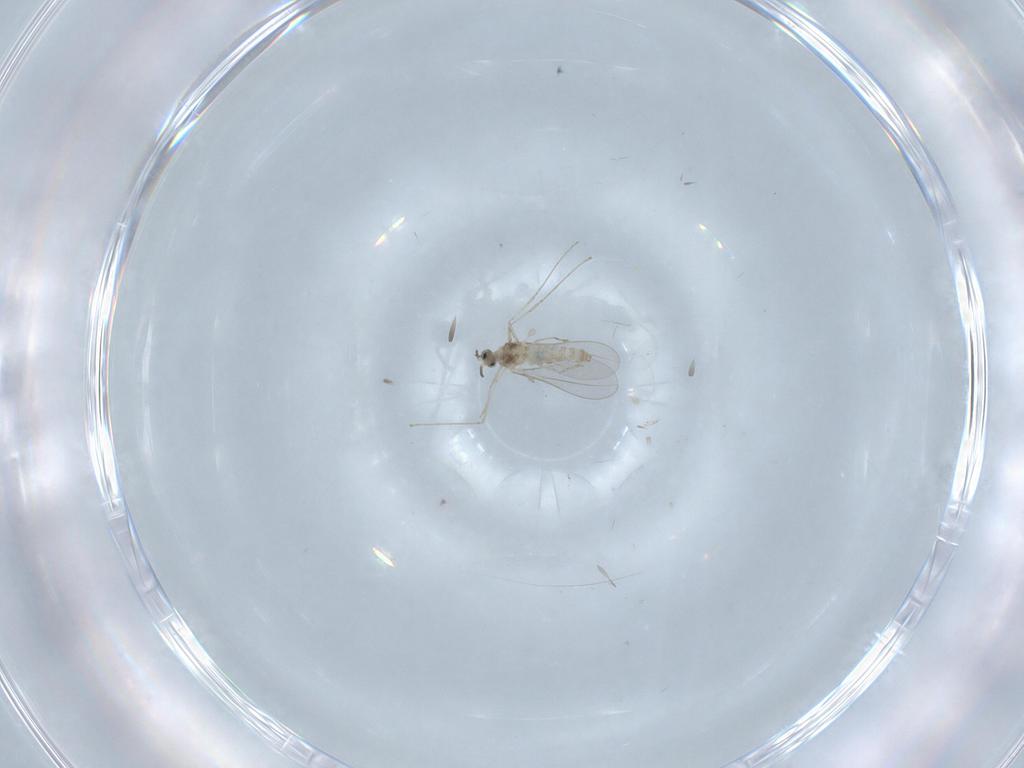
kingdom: Animalia
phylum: Arthropoda
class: Insecta
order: Diptera
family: Cecidomyiidae
